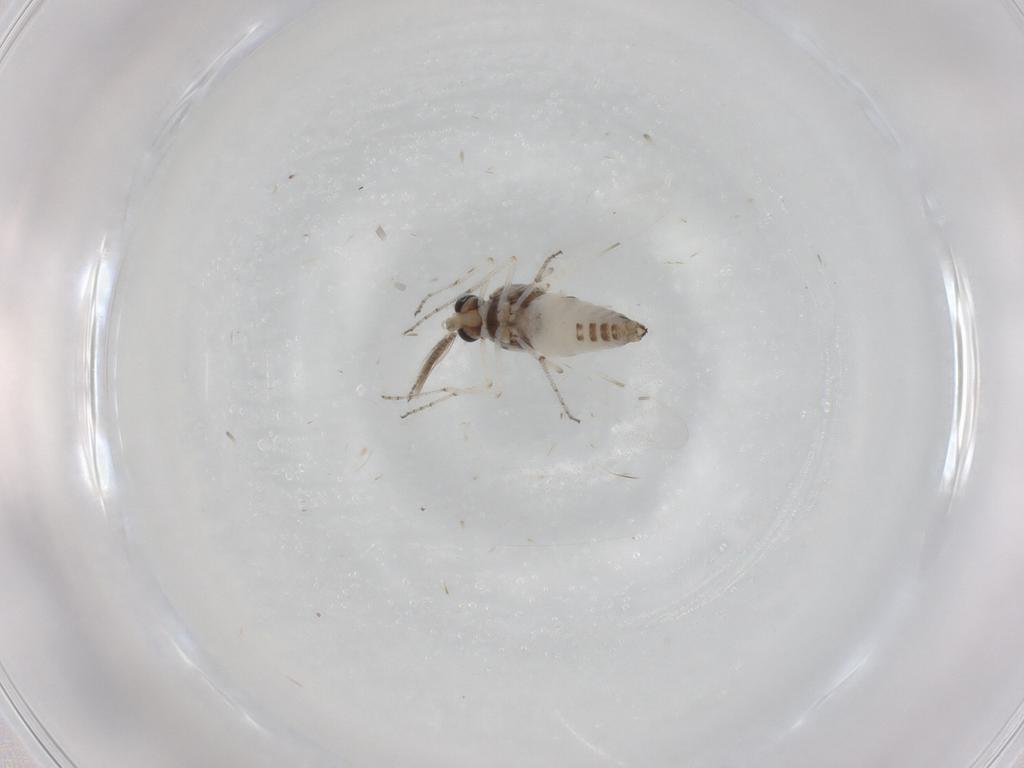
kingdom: Animalia
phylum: Arthropoda
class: Insecta
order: Diptera
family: Ceratopogonidae
